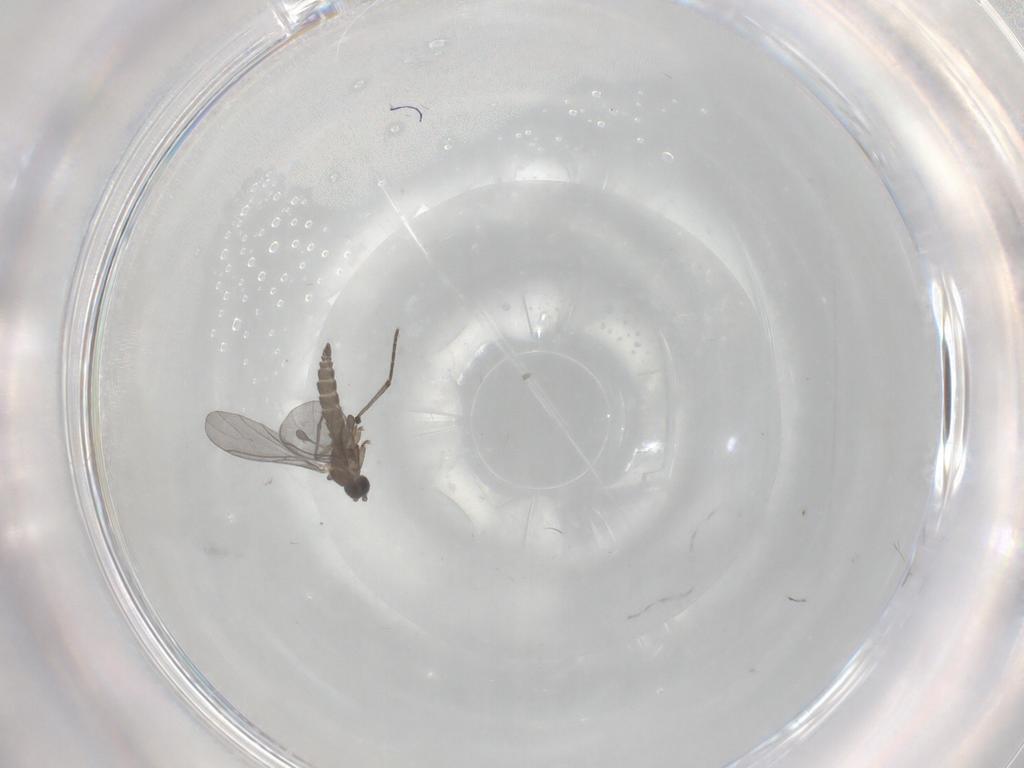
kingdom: Animalia
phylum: Arthropoda
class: Insecta
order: Diptera
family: Sciaridae
